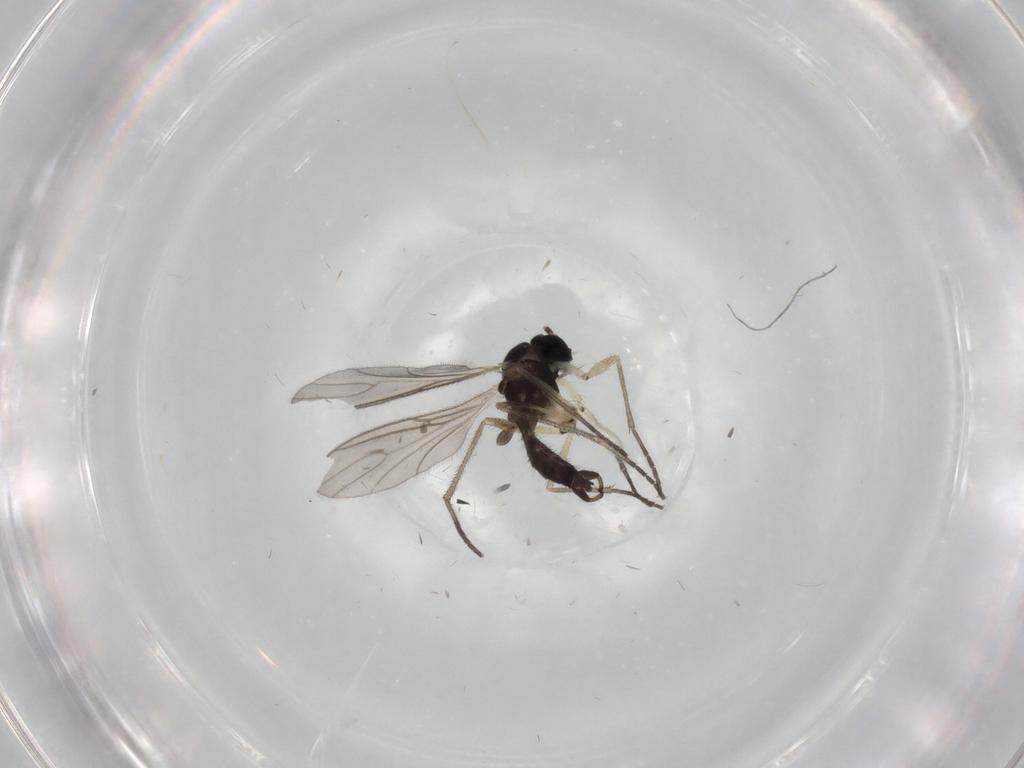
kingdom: Animalia
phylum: Arthropoda
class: Insecta
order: Diptera
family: Sciaridae
